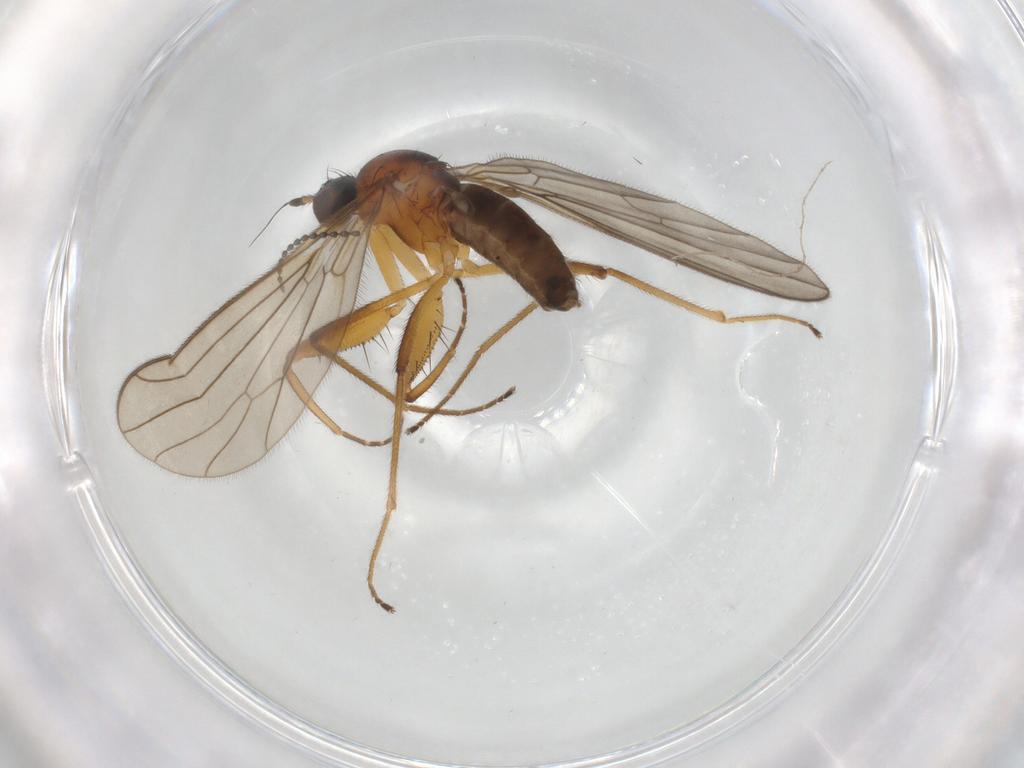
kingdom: Animalia
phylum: Arthropoda
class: Insecta
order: Diptera
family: Empididae
